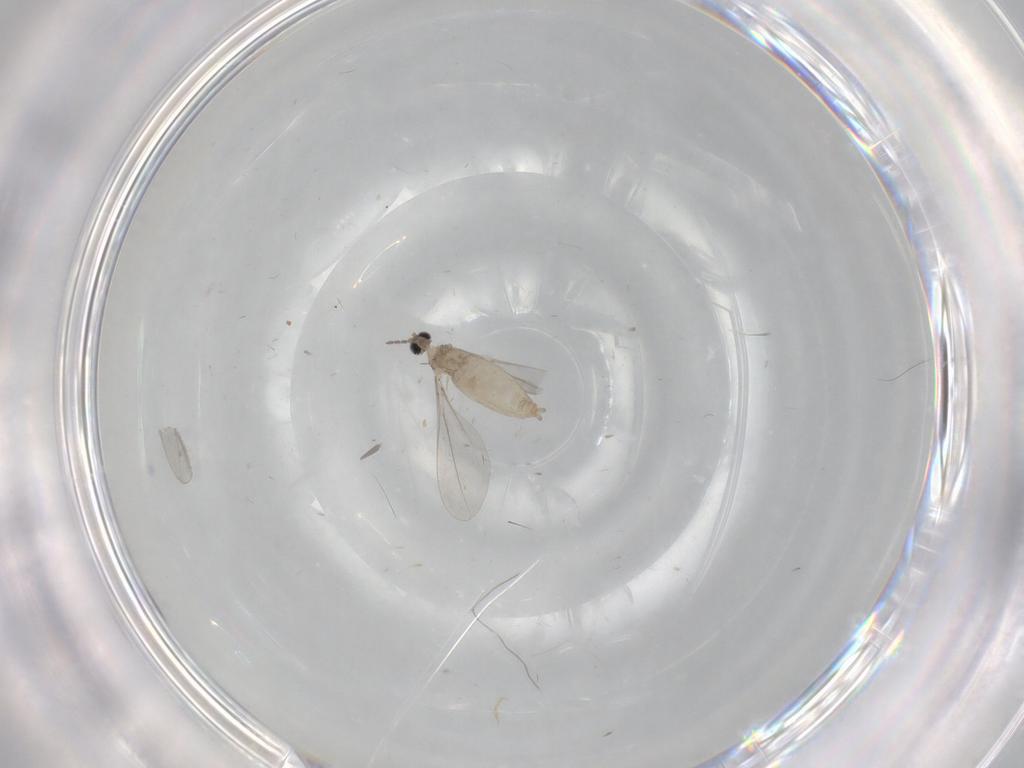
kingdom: Animalia
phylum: Arthropoda
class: Insecta
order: Diptera
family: Cecidomyiidae
